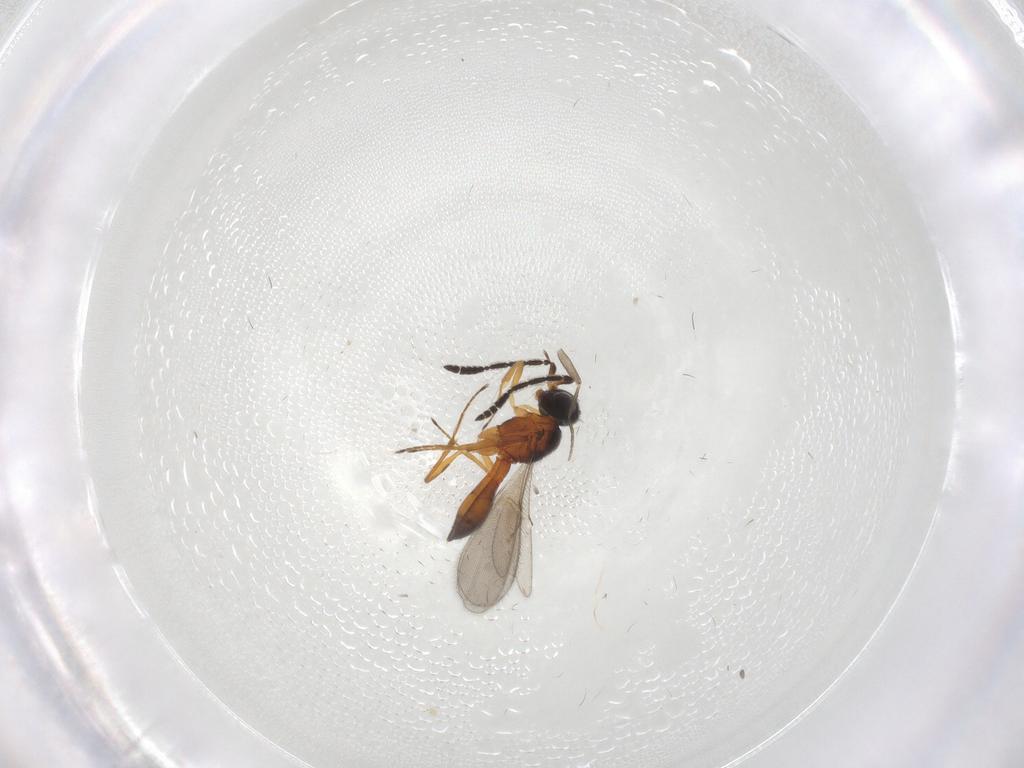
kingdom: Animalia
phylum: Arthropoda
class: Insecta
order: Hymenoptera
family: Scelionidae
